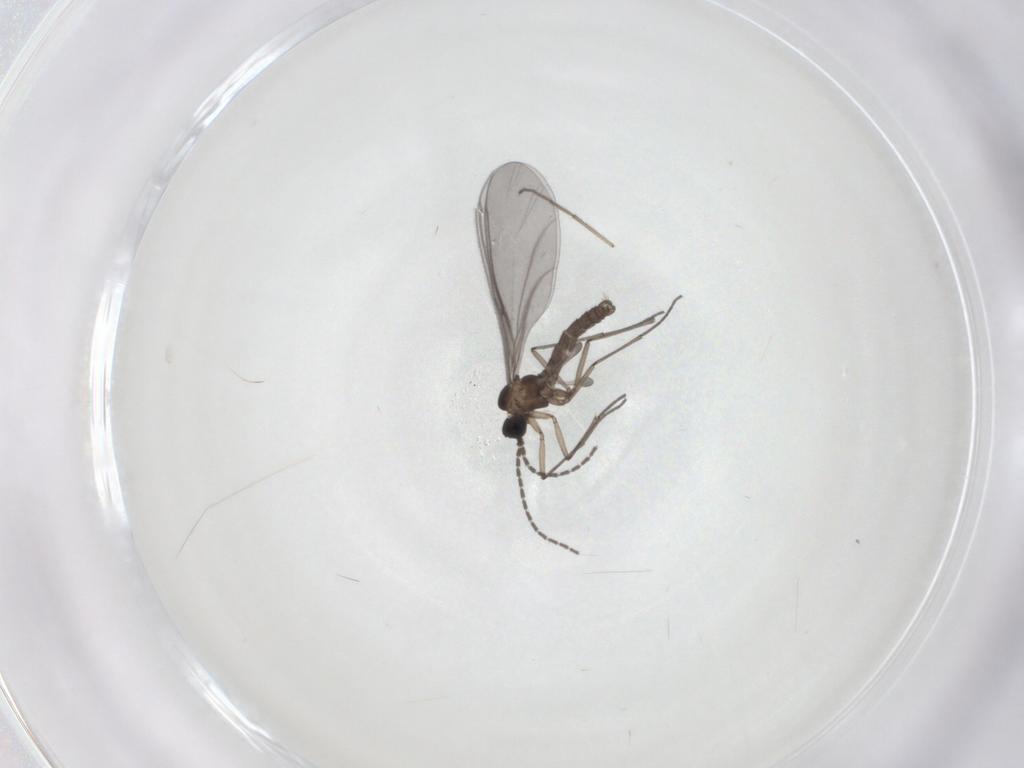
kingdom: Animalia
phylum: Arthropoda
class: Insecta
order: Diptera
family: Sciaridae
